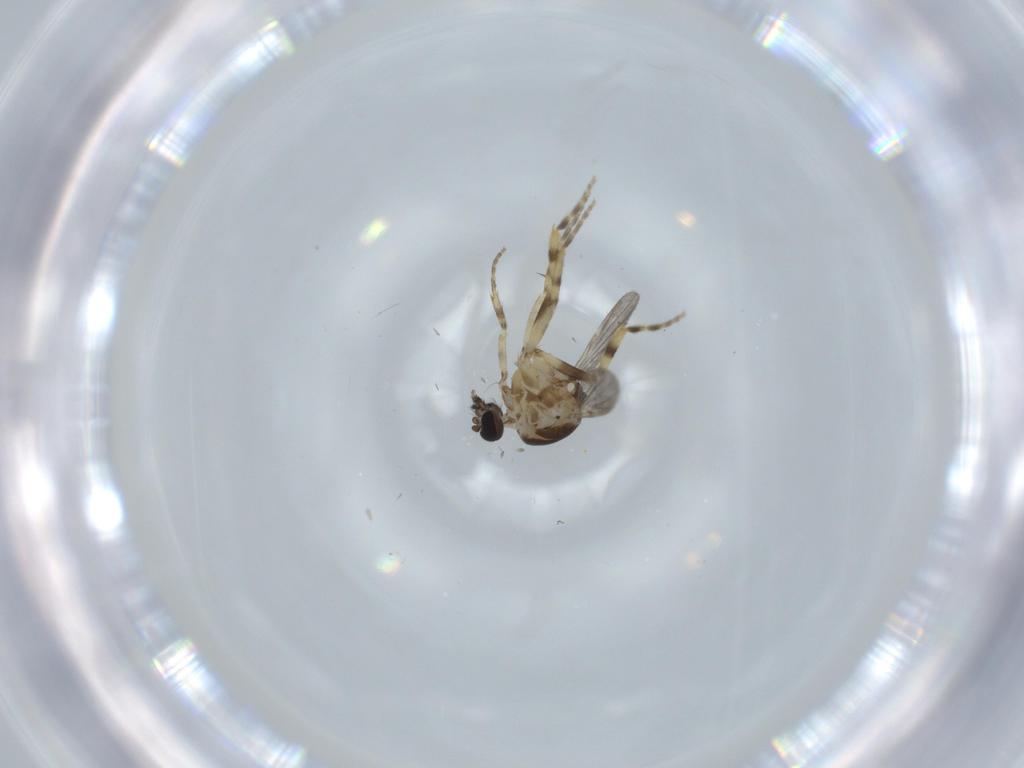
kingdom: Animalia
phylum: Arthropoda
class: Insecta
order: Diptera
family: Ceratopogonidae
